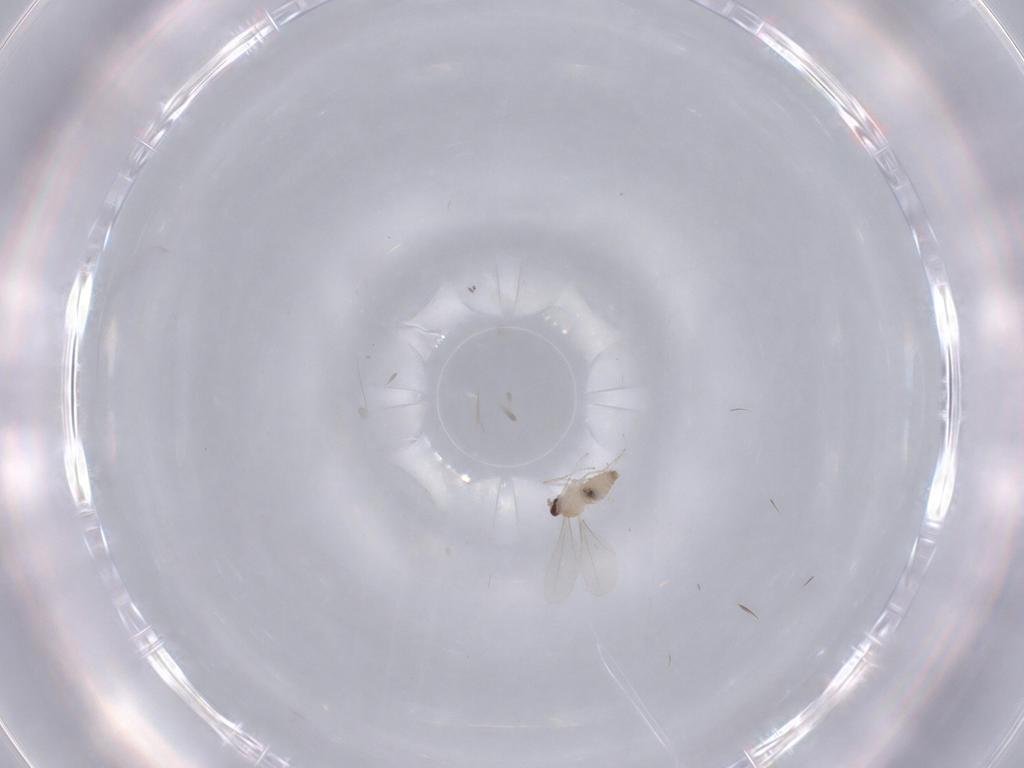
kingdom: Animalia
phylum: Arthropoda
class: Insecta
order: Diptera
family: Cecidomyiidae
